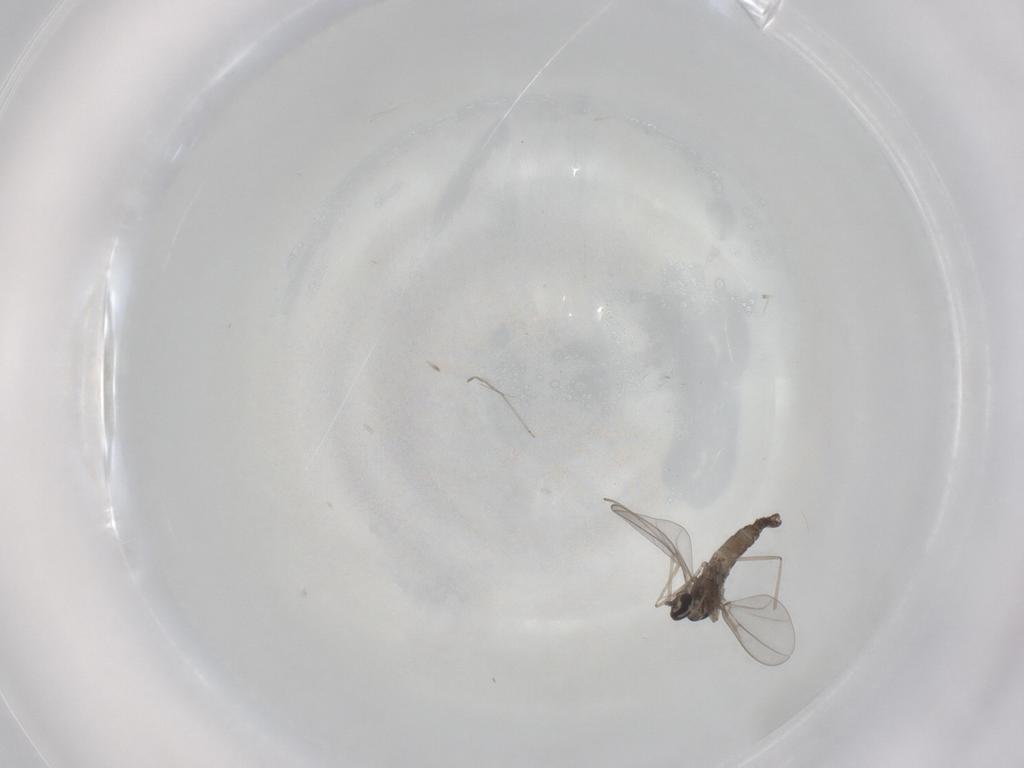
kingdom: Animalia
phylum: Arthropoda
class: Insecta
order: Diptera
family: Cecidomyiidae
